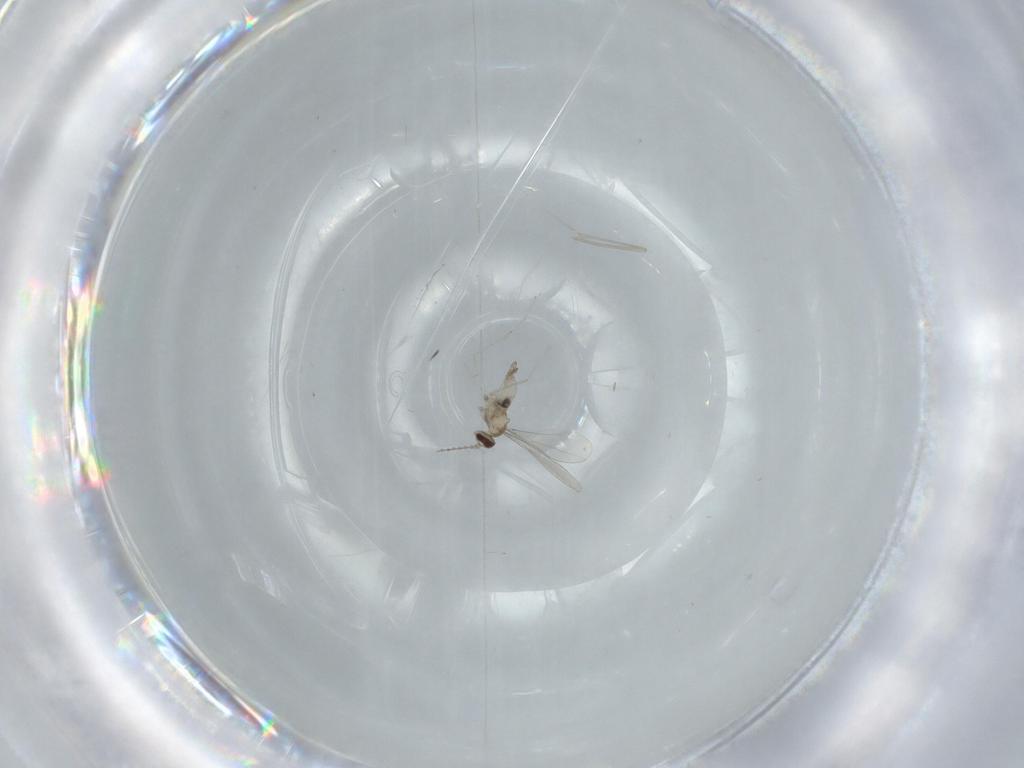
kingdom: Animalia
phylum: Arthropoda
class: Insecta
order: Diptera
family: Cecidomyiidae
